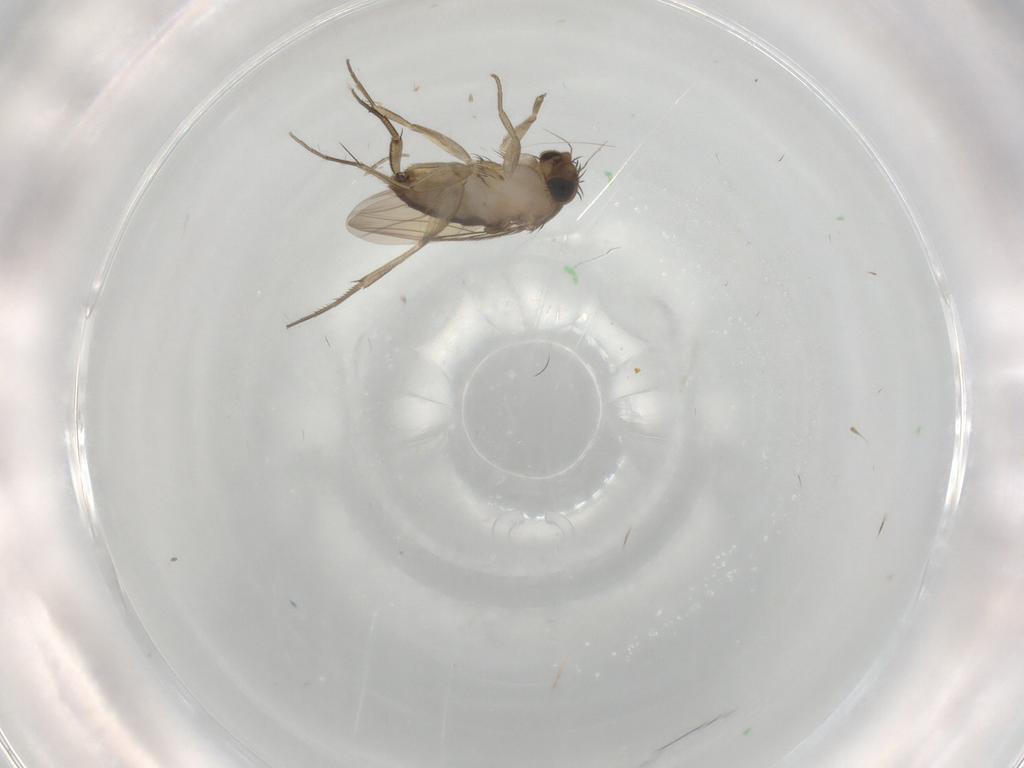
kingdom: Animalia
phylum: Arthropoda
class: Insecta
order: Diptera
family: Phoridae
